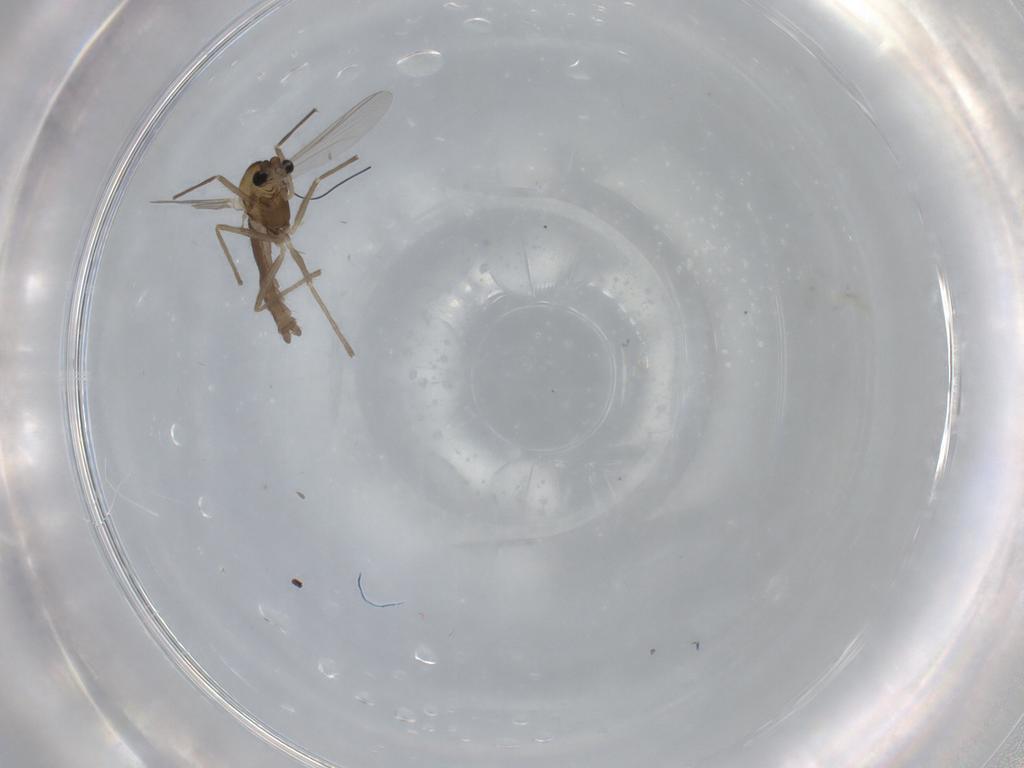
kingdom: Animalia
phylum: Arthropoda
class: Insecta
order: Diptera
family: Chironomidae
